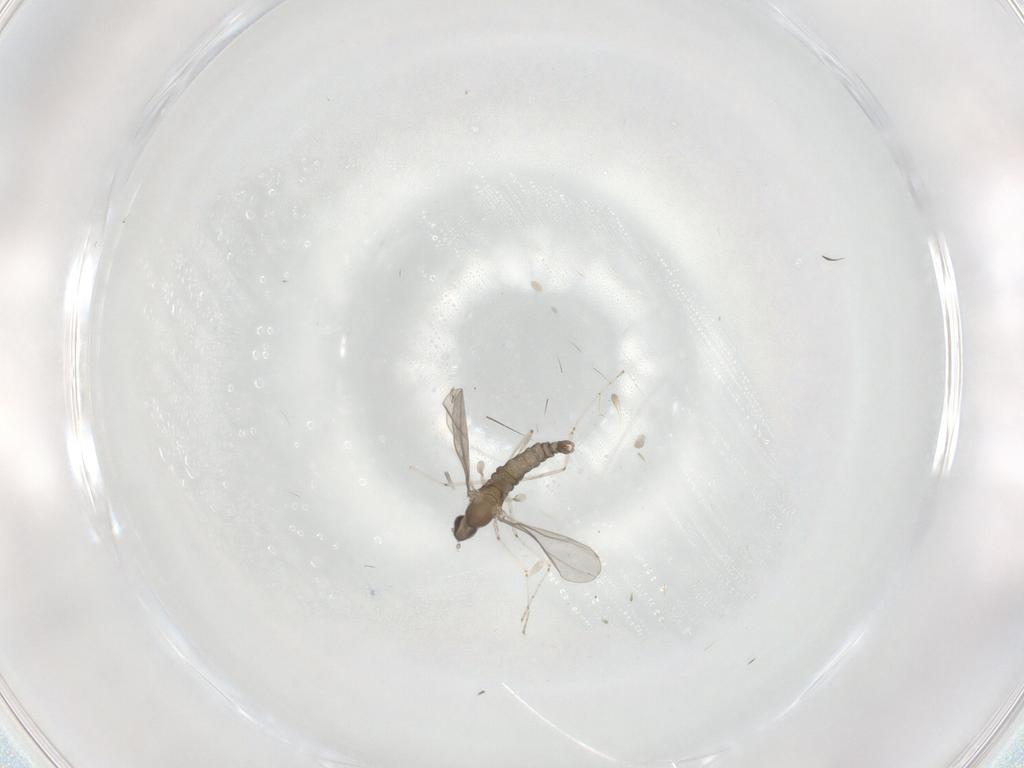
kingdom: Animalia
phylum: Arthropoda
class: Insecta
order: Diptera
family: Cecidomyiidae
